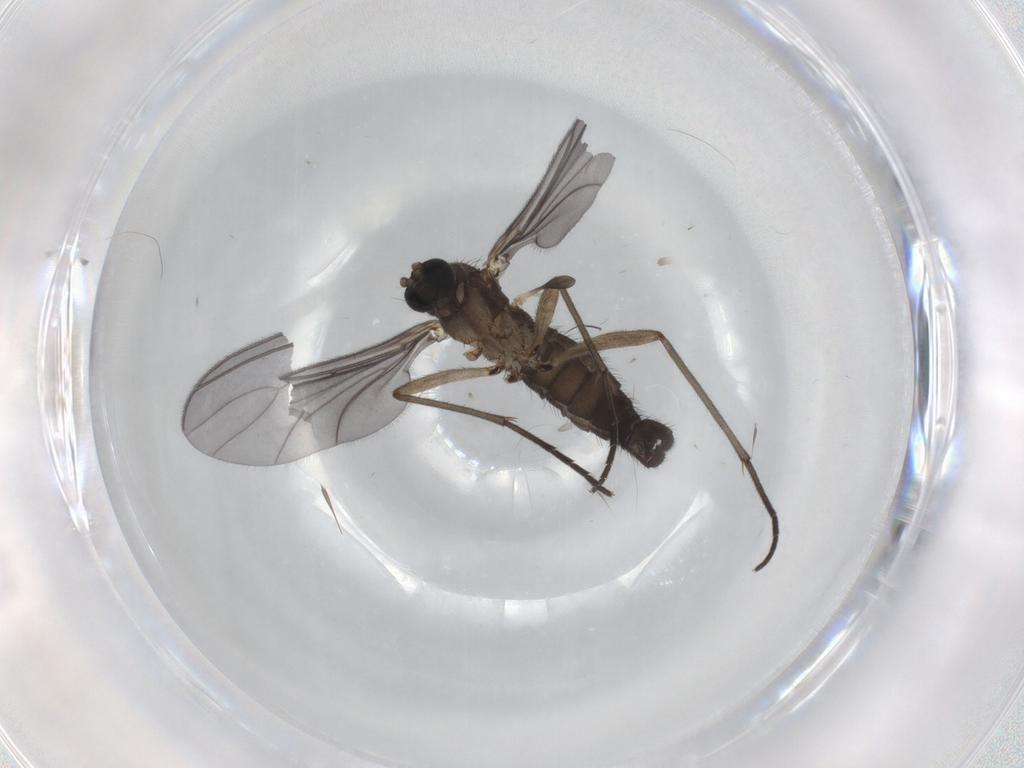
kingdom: Animalia
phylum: Arthropoda
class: Insecta
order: Diptera
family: Sciaridae
